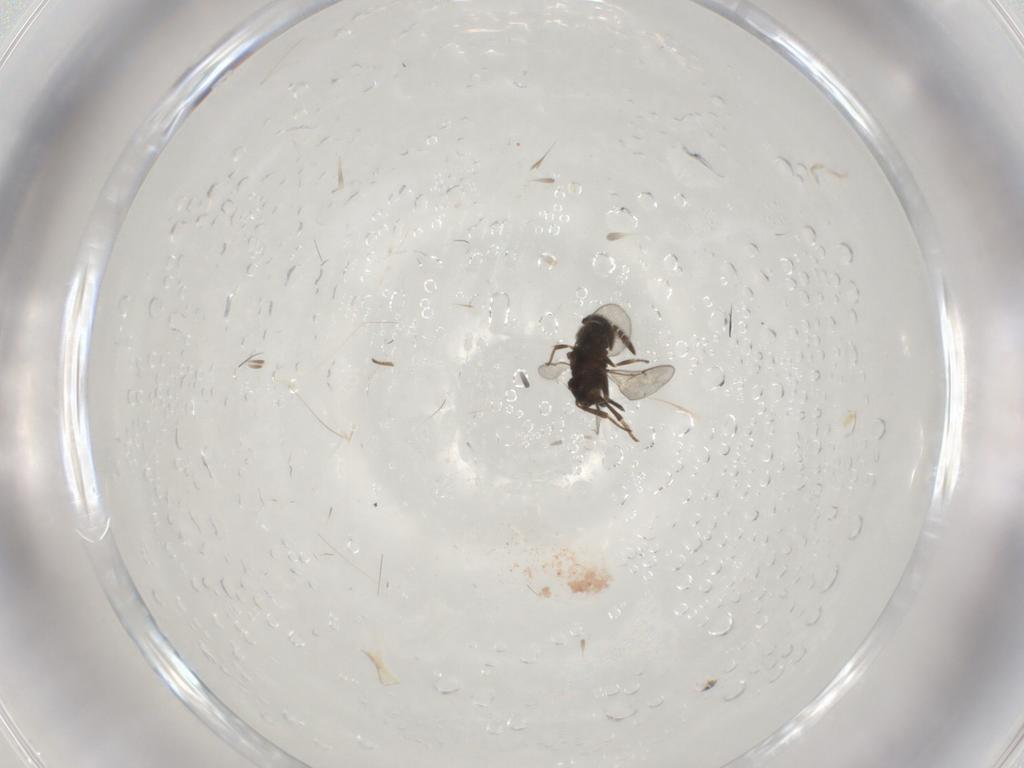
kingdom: Animalia
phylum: Arthropoda
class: Insecta
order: Hymenoptera
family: Encyrtidae
